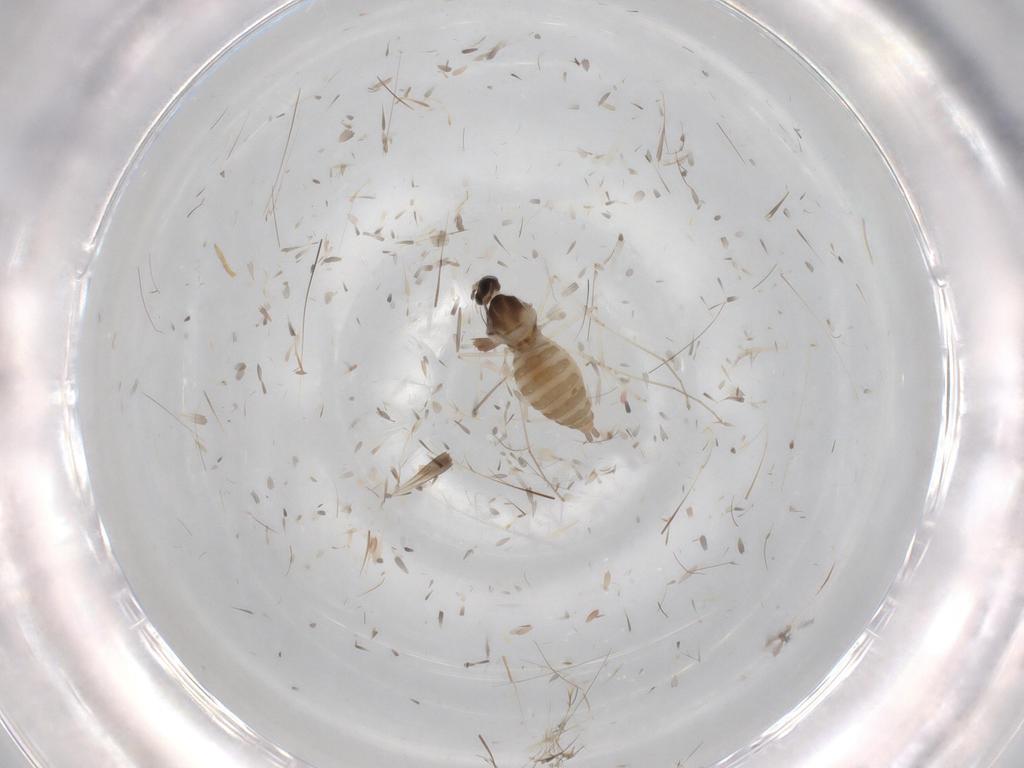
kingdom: Animalia
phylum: Arthropoda
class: Insecta
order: Diptera
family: Cecidomyiidae
